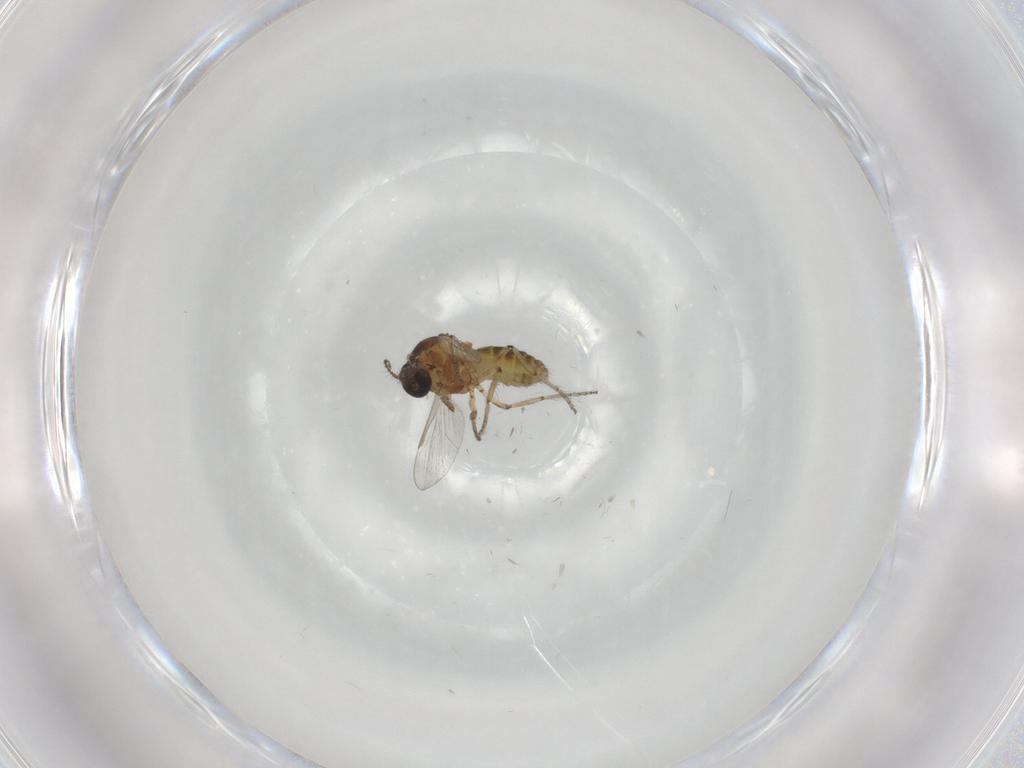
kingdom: Animalia
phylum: Arthropoda
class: Insecta
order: Diptera
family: Ceratopogonidae
